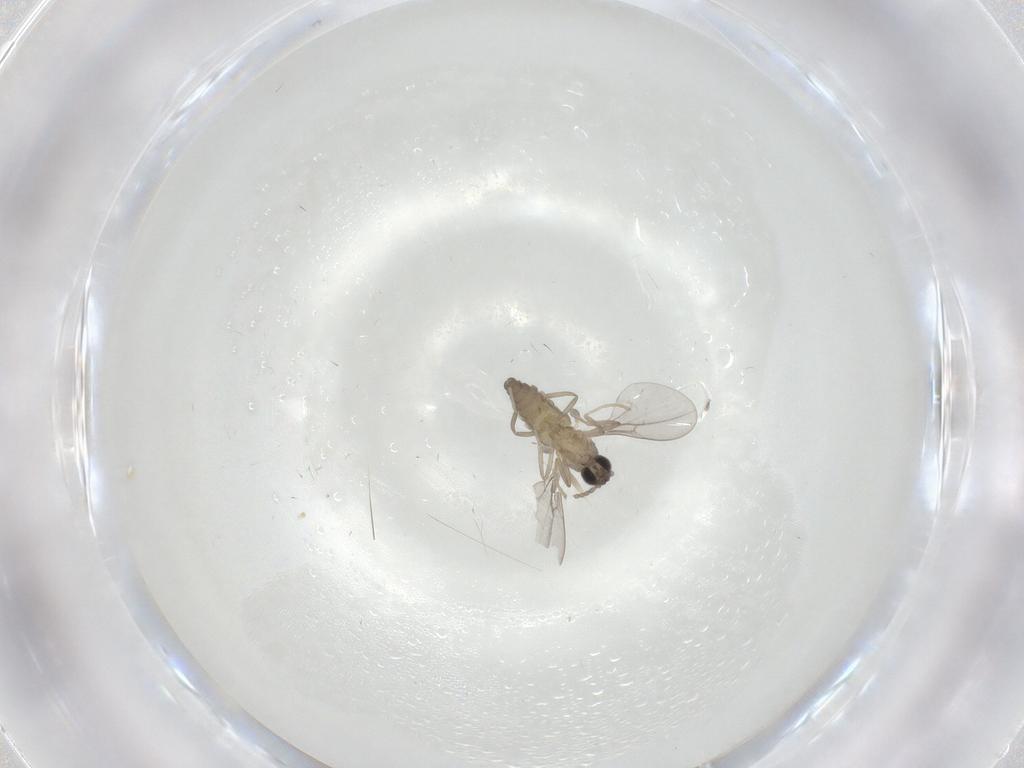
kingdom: Animalia
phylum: Arthropoda
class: Insecta
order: Diptera
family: Cecidomyiidae
